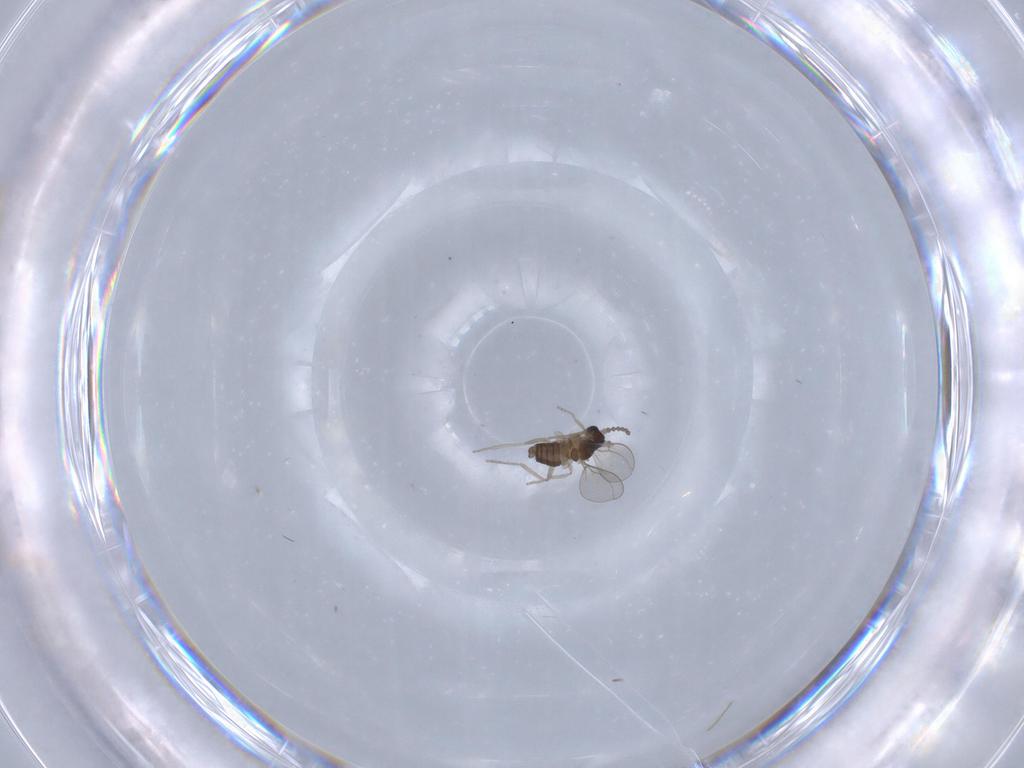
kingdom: Animalia
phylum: Arthropoda
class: Insecta
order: Diptera
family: Cecidomyiidae
